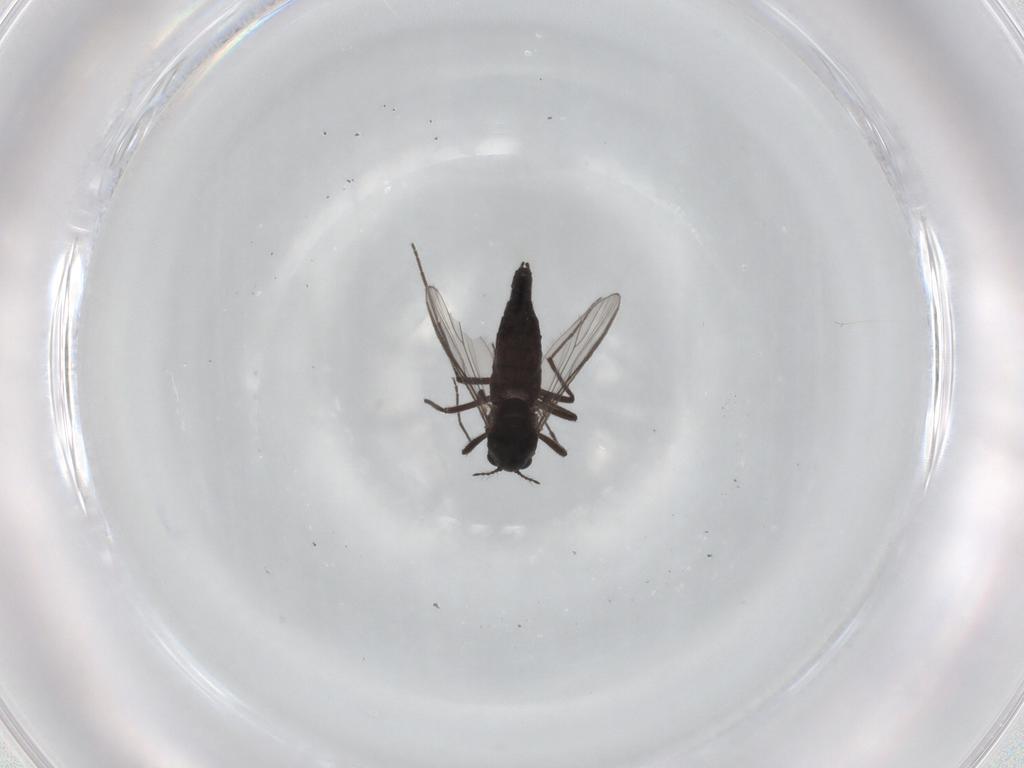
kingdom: Animalia
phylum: Arthropoda
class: Insecta
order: Diptera
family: Chironomidae
